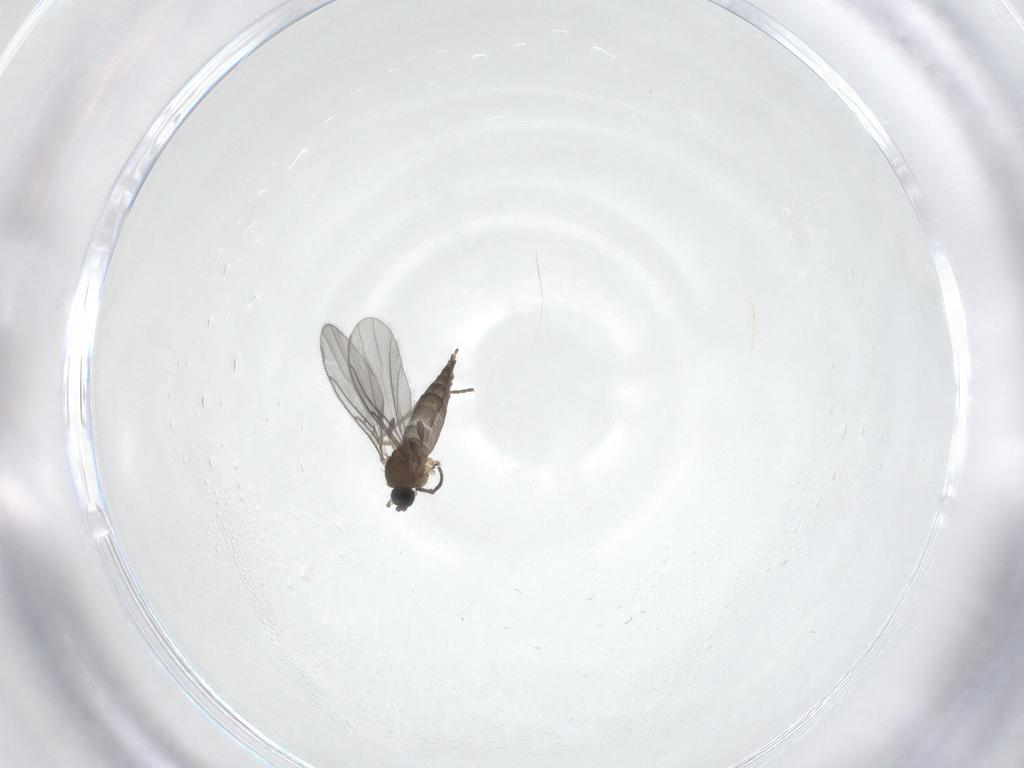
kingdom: Animalia
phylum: Arthropoda
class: Insecta
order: Diptera
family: Sciaridae
